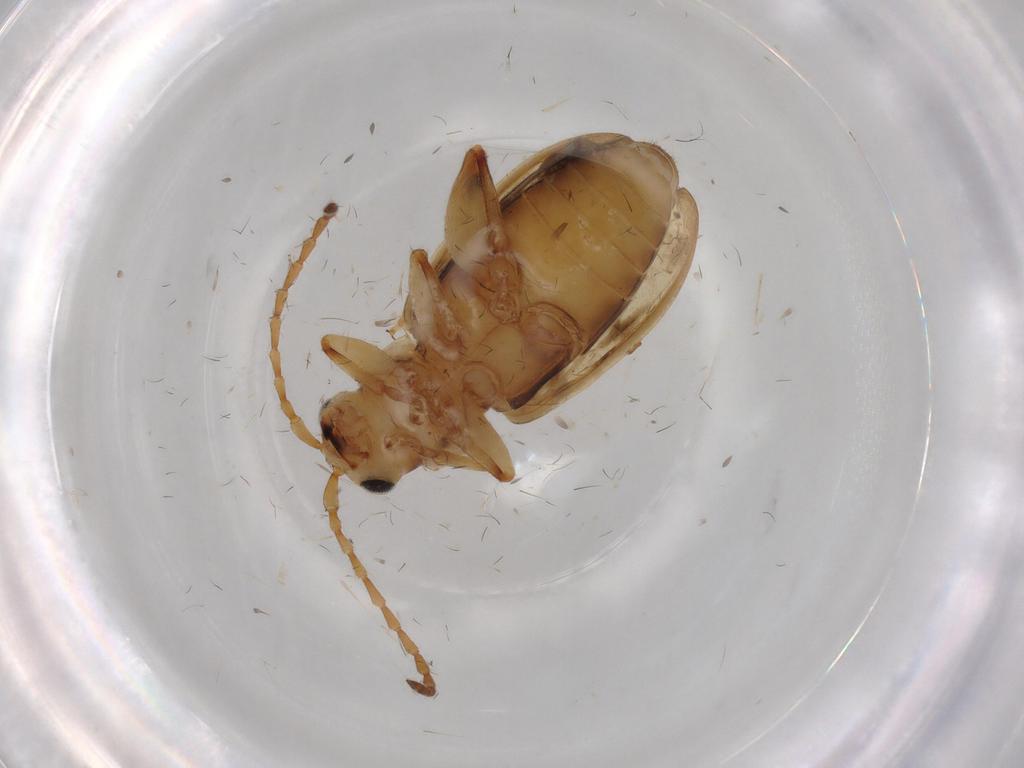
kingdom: Animalia
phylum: Arthropoda
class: Insecta
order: Coleoptera
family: Chrysomelidae
